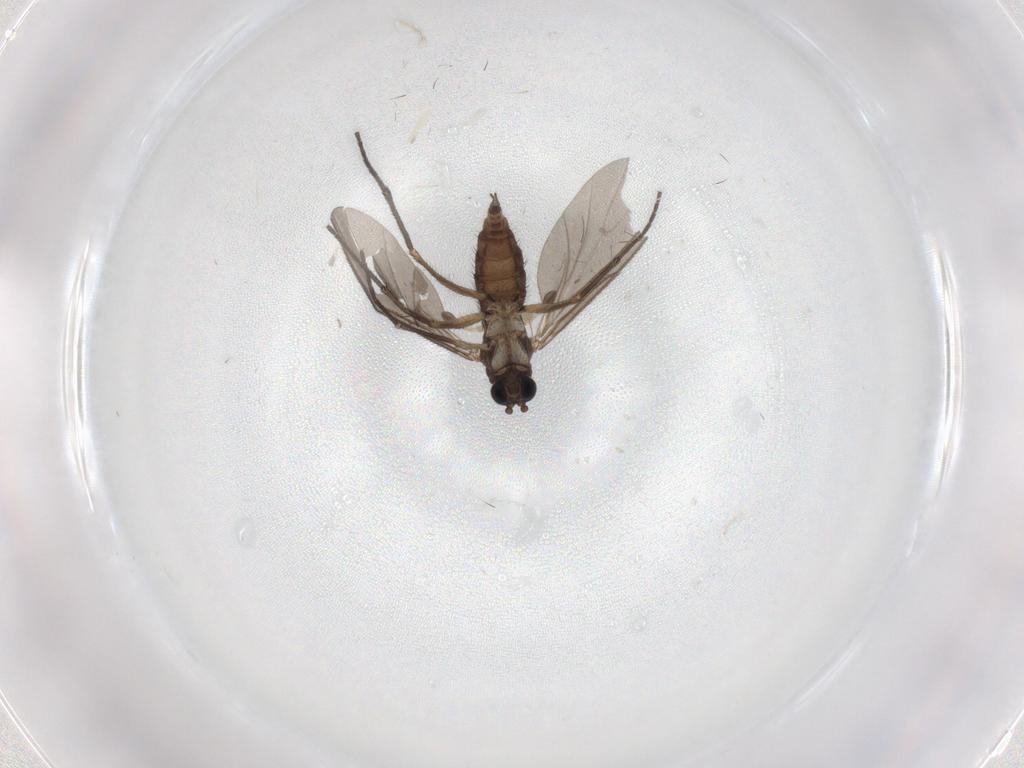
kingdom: Animalia
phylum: Arthropoda
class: Insecta
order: Diptera
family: Sciaridae
